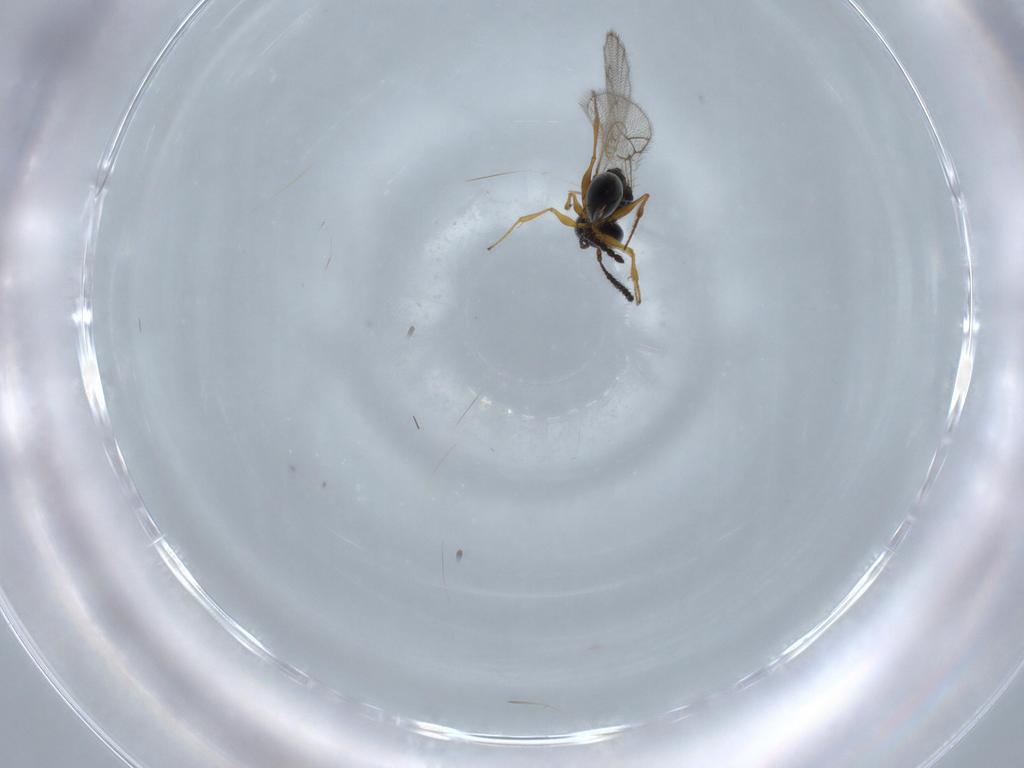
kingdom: Animalia
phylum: Arthropoda
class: Insecta
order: Hymenoptera
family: Figitidae
